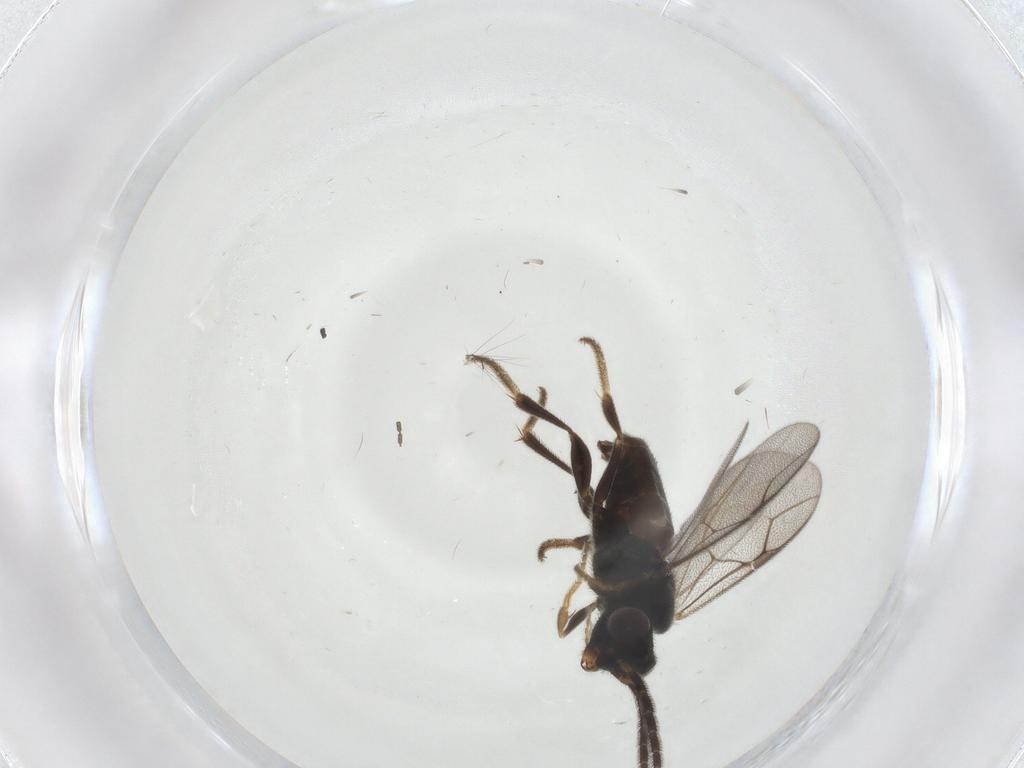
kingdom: Animalia
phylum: Arthropoda
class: Insecta
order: Hymenoptera
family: Dryinidae
